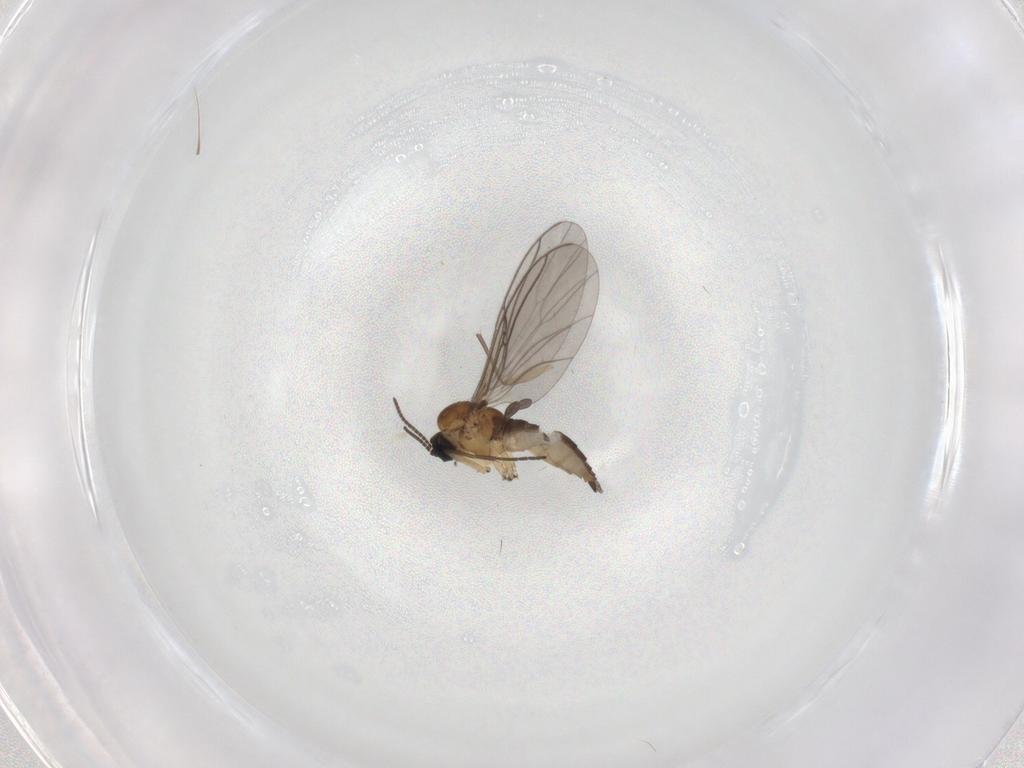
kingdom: Animalia
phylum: Arthropoda
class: Insecta
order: Diptera
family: Sciaridae
